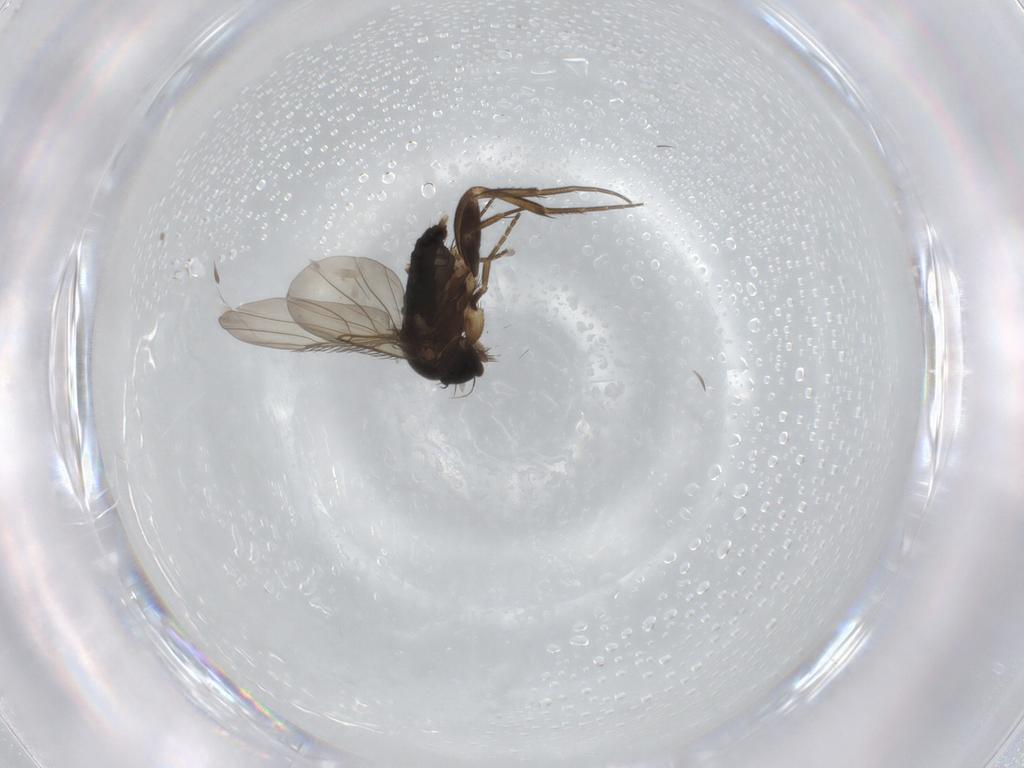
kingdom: Animalia
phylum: Arthropoda
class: Insecta
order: Diptera
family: Phoridae
